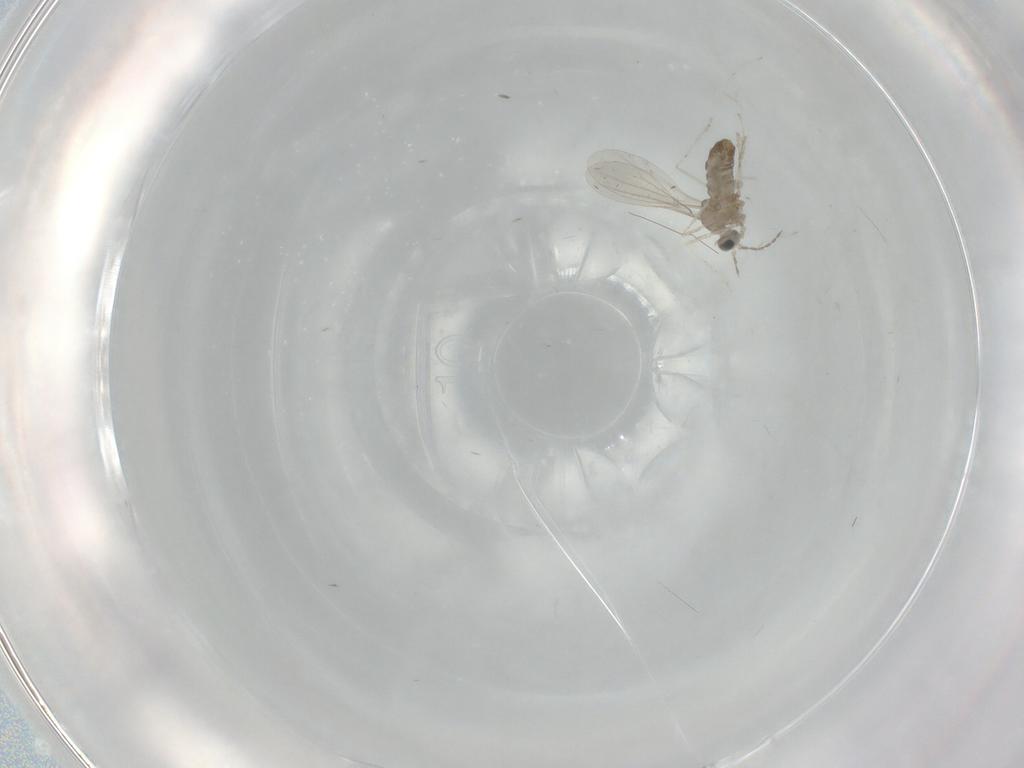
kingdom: Animalia
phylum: Arthropoda
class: Insecta
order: Diptera
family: Cecidomyiidae
